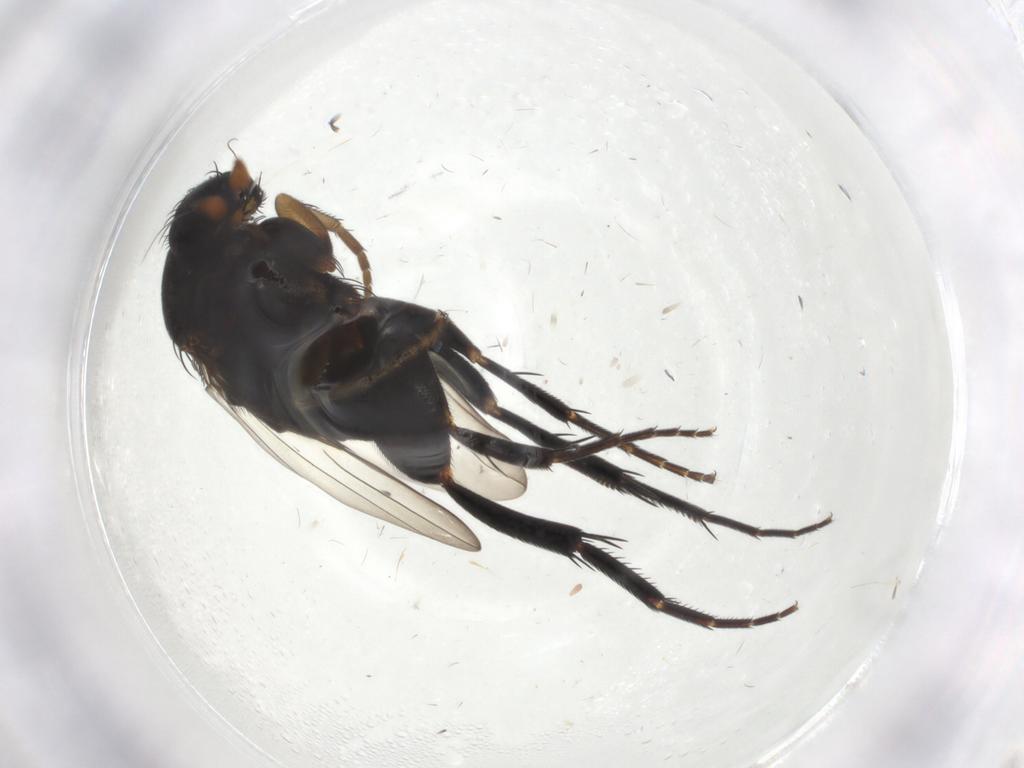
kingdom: Animalia
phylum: Arthropoda
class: Insecta
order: Diptera
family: Phoridae
